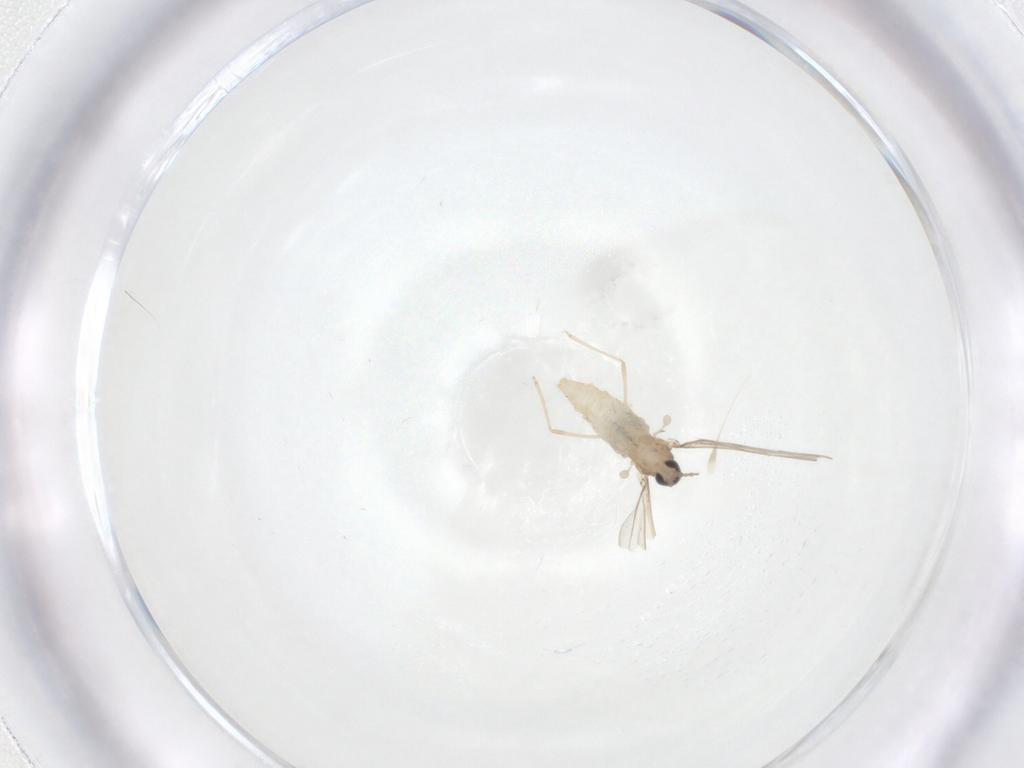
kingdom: Animalia
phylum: Arthropoda
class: Insecta
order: Diptera
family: Cecidomyiidae
